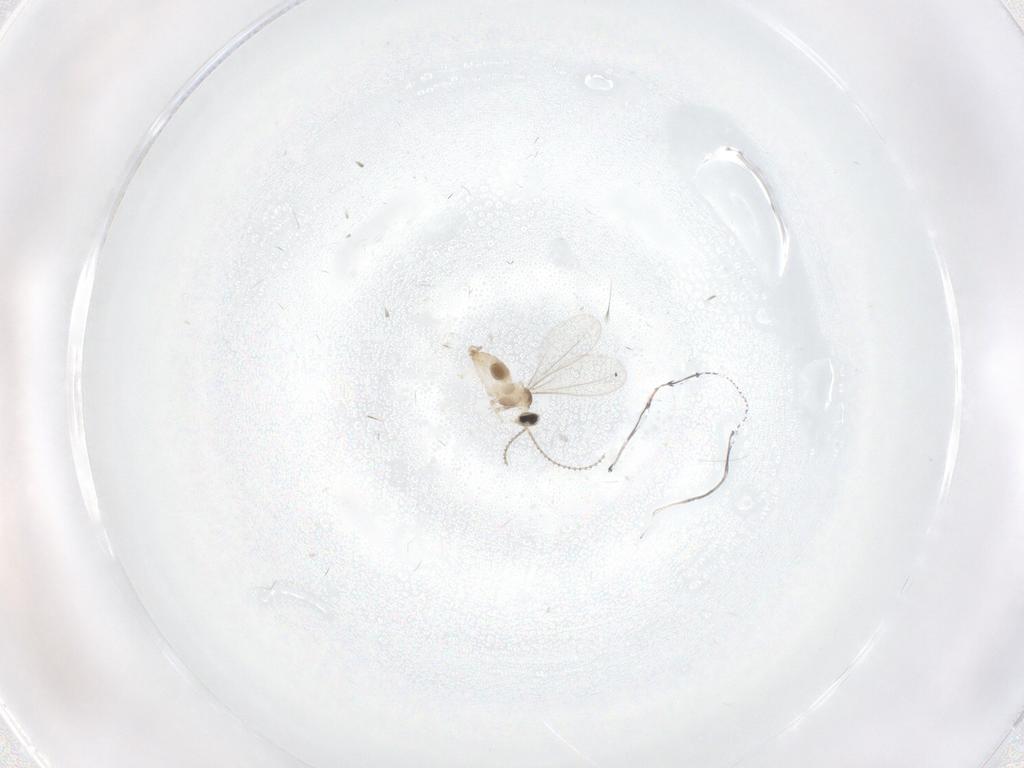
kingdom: Animalia
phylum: Arthropoda
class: Insecta
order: Diptera
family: Cecidomyiidae
